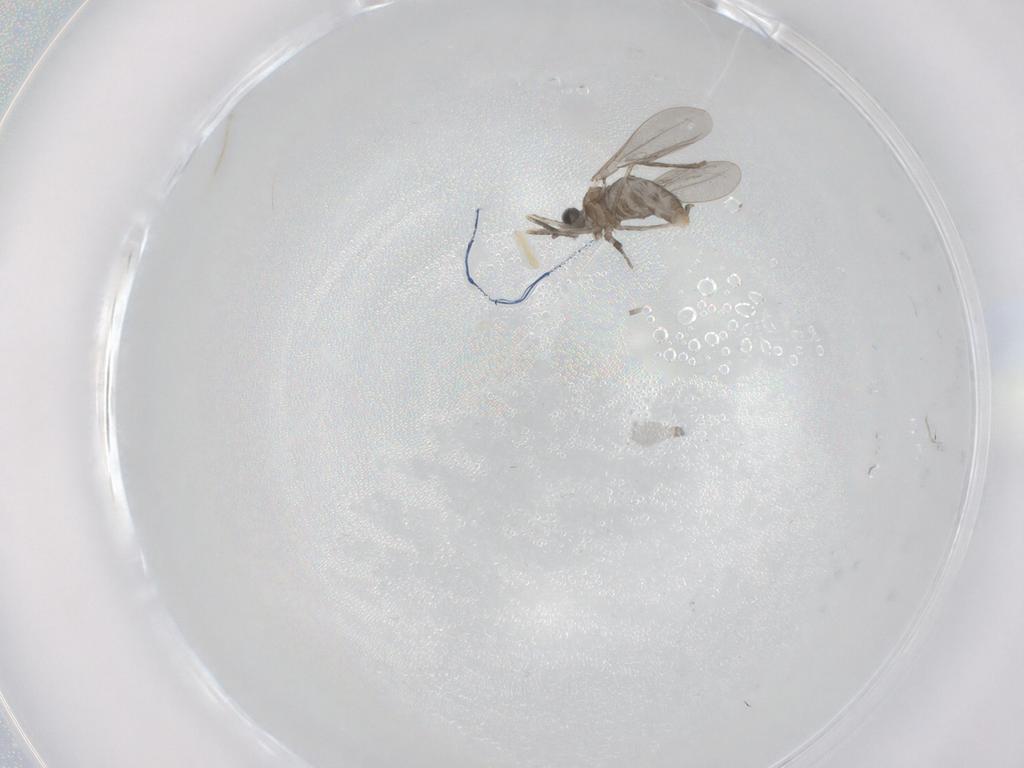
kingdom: Animalia
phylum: Arthropoda
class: Insecta
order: Diptera
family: Cecidomyiidae
